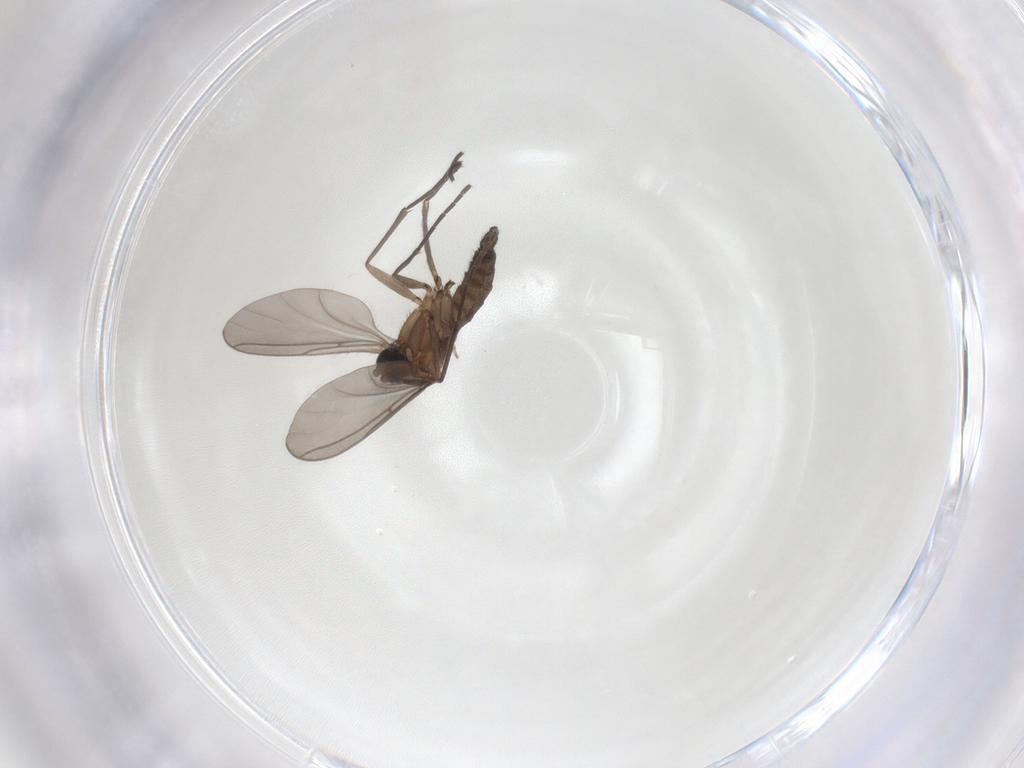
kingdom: Animalia
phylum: Arthropoda
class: Insecta
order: Diptera
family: Sciaridae
